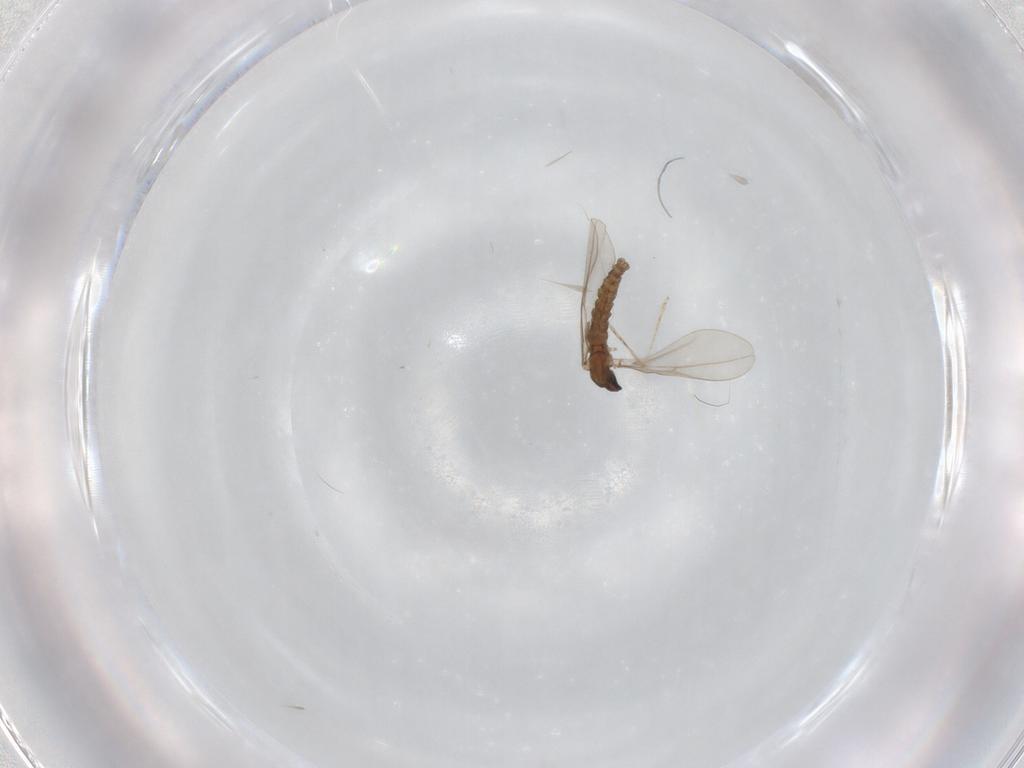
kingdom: Animalia
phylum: Arthropoda
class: Insecta
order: Diptera
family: Cecidomyiidae
